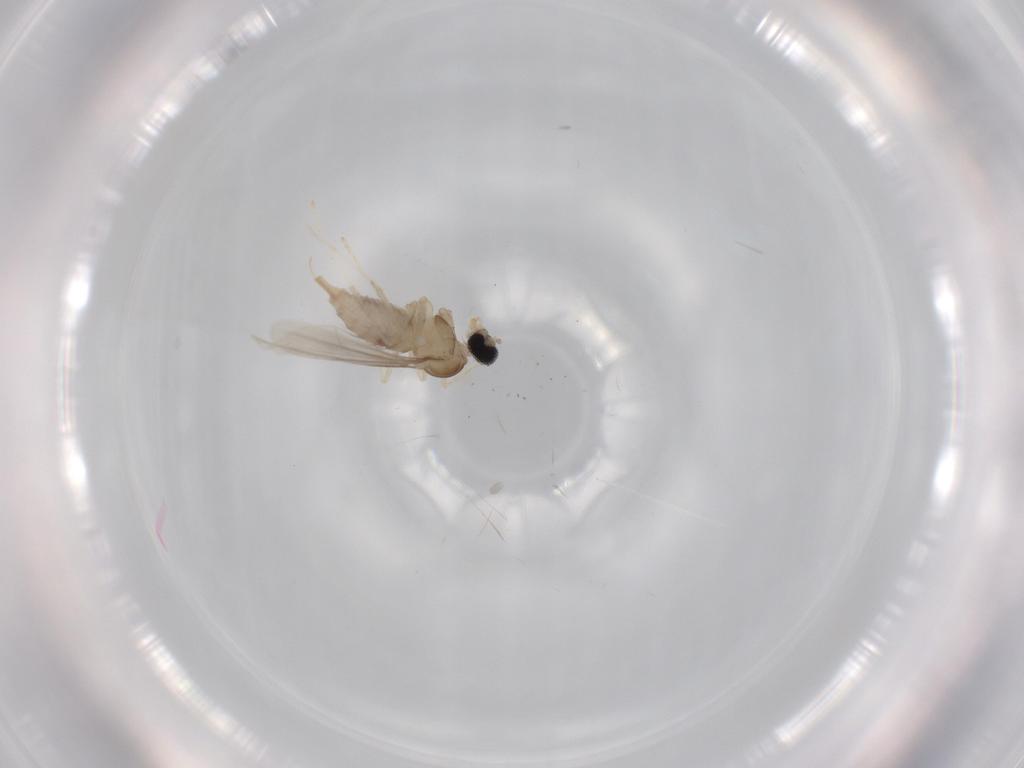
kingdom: Animalia
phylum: Arthropoda
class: Insecta
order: Diptera
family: Cecidomyiidae
